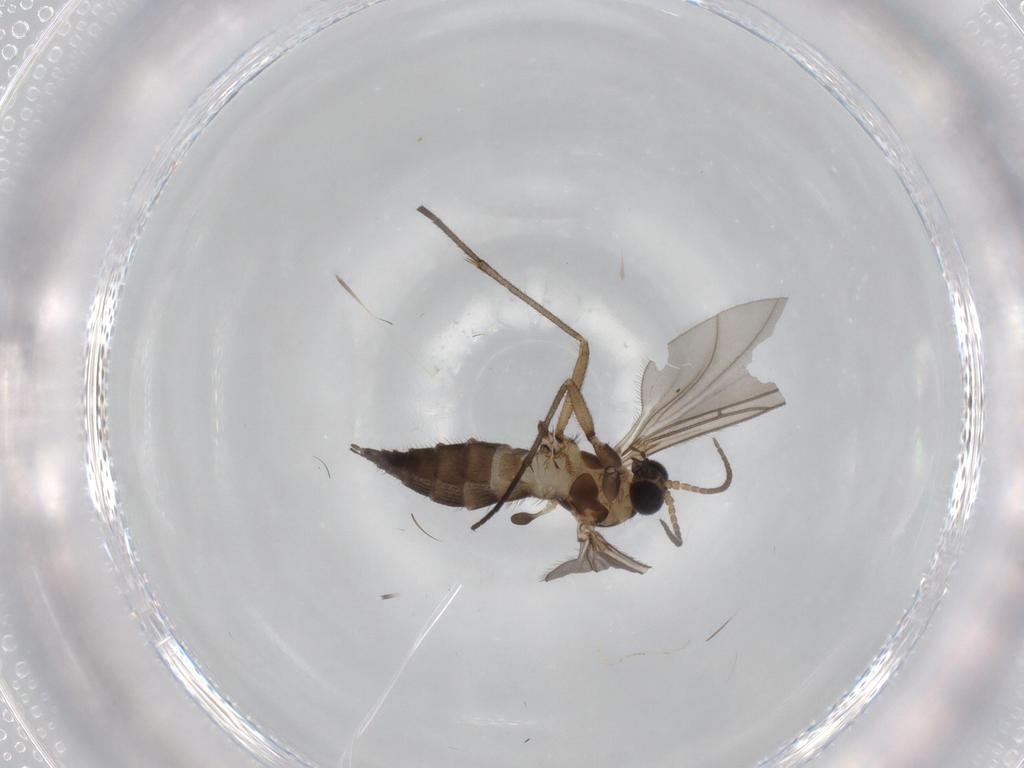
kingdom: Animalia
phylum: Arthropoda
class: Insecta
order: Diptera
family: Sciaridae
